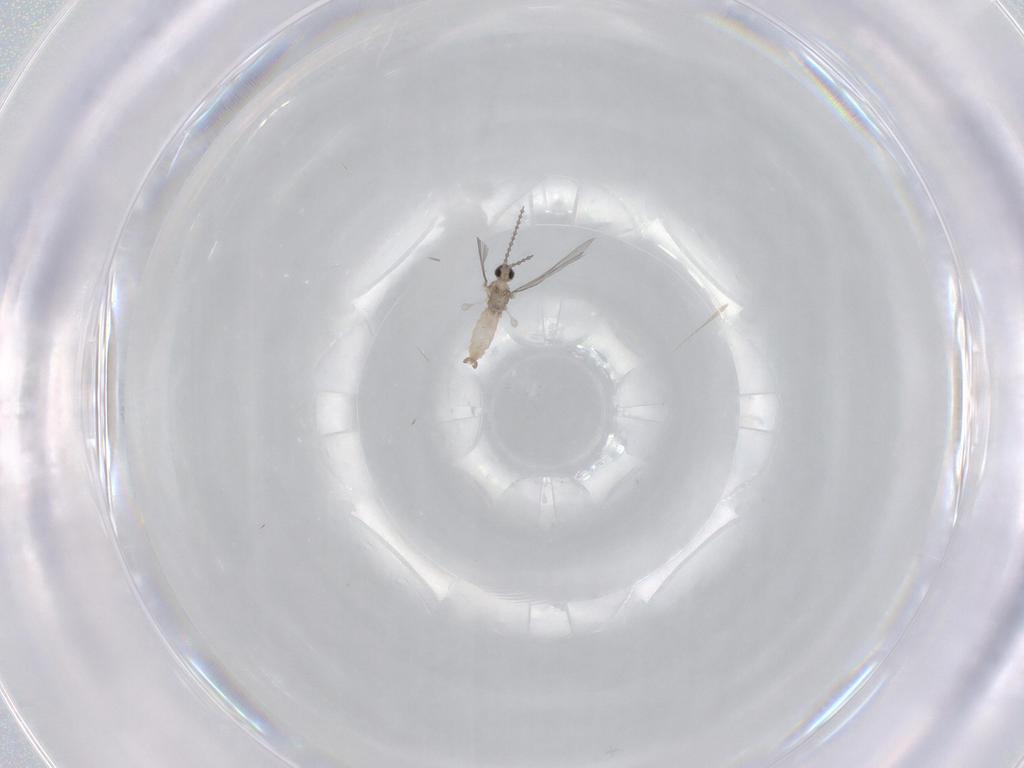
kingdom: Animalia
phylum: Arthropoda
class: Insecta
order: Diptera
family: Cecidomyiidae
